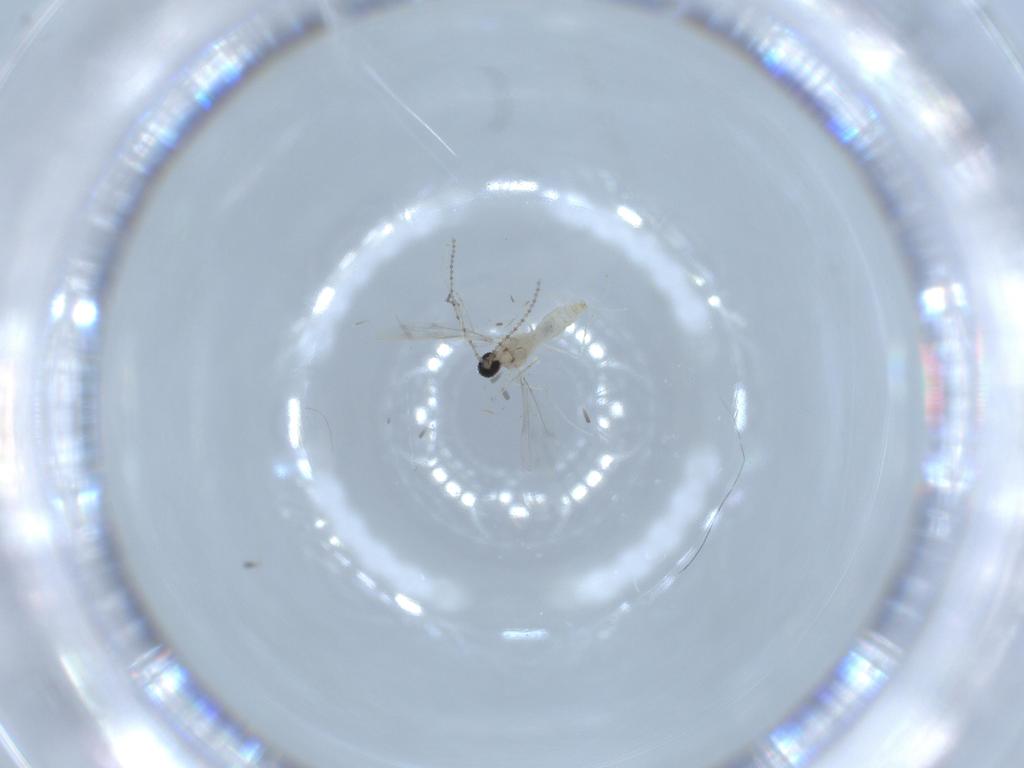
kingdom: Animalia
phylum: Arthropoda
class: Insecta
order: Diptera
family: Cecidomyiidae
